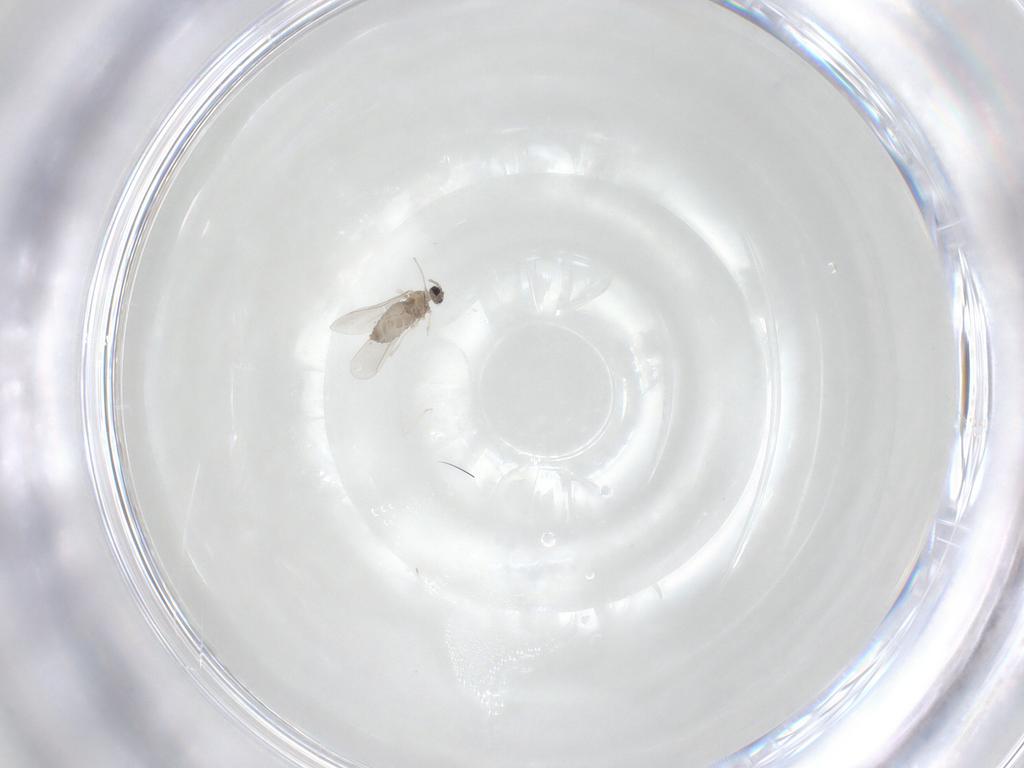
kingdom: Animalia
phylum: Arthropoda
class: Insecta
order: Diptera
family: Cecidomyiidae
